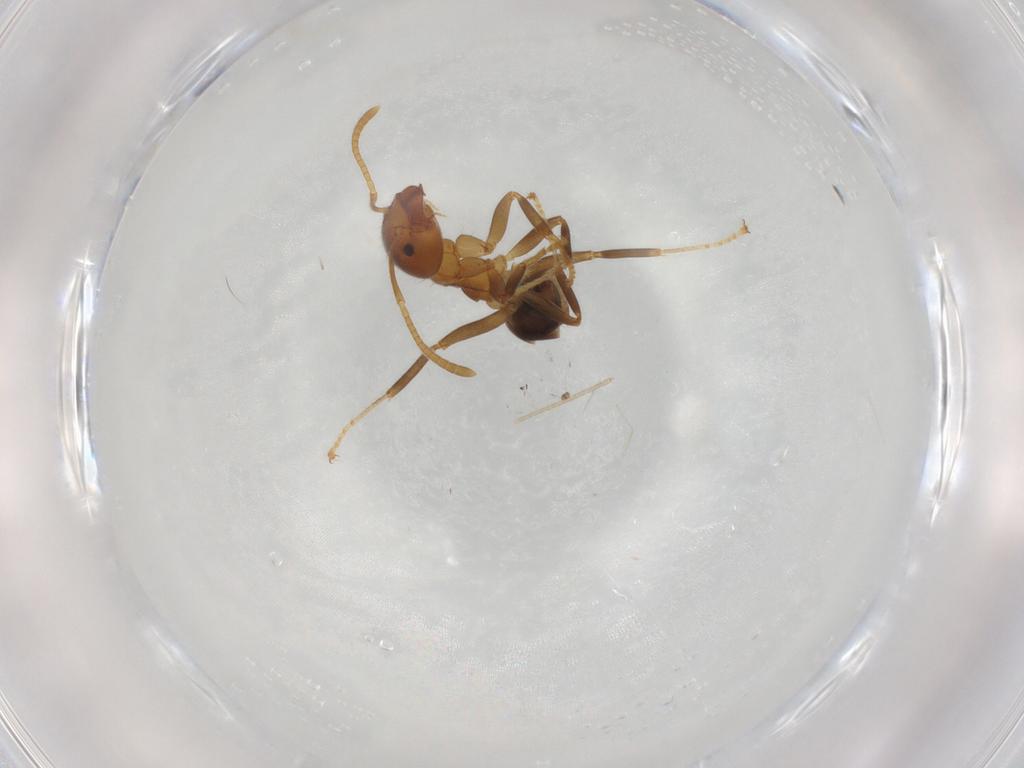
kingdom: Animalia
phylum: Arthropoda
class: Insecta
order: Hymenoptera
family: Formicidae
